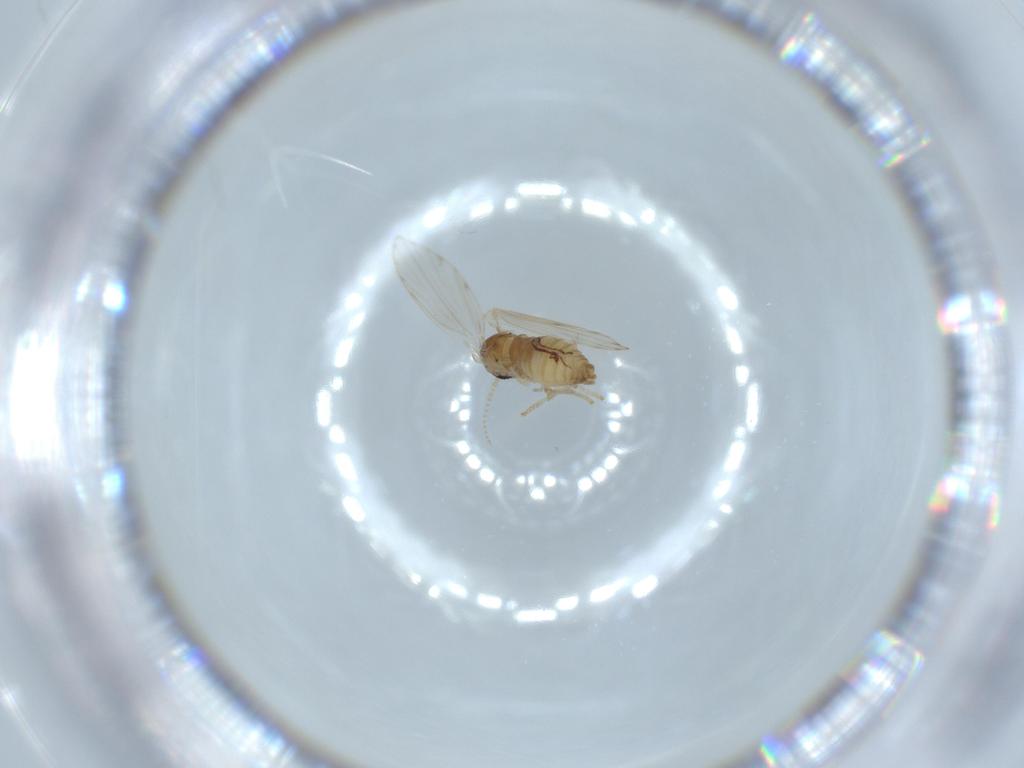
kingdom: Animalia
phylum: Arthropoda
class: Insecta
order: Diptera
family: Psychodidae
